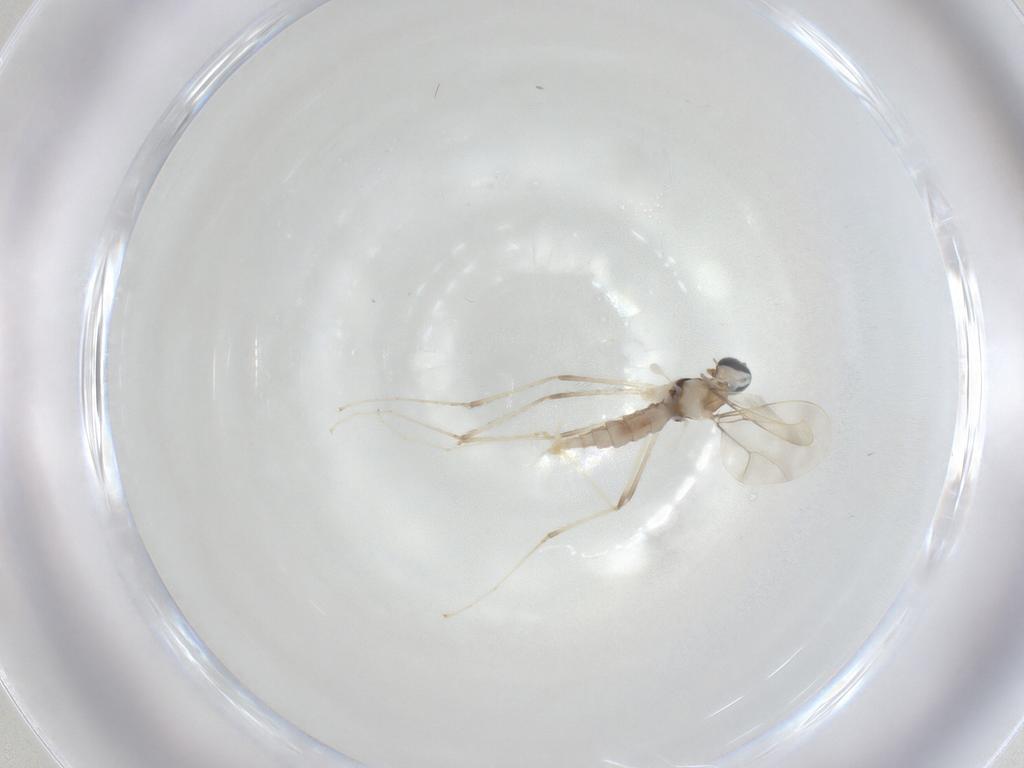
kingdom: Animalia
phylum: Arthropoda
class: Insecta
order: Diptera
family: Cecidomyiidae
